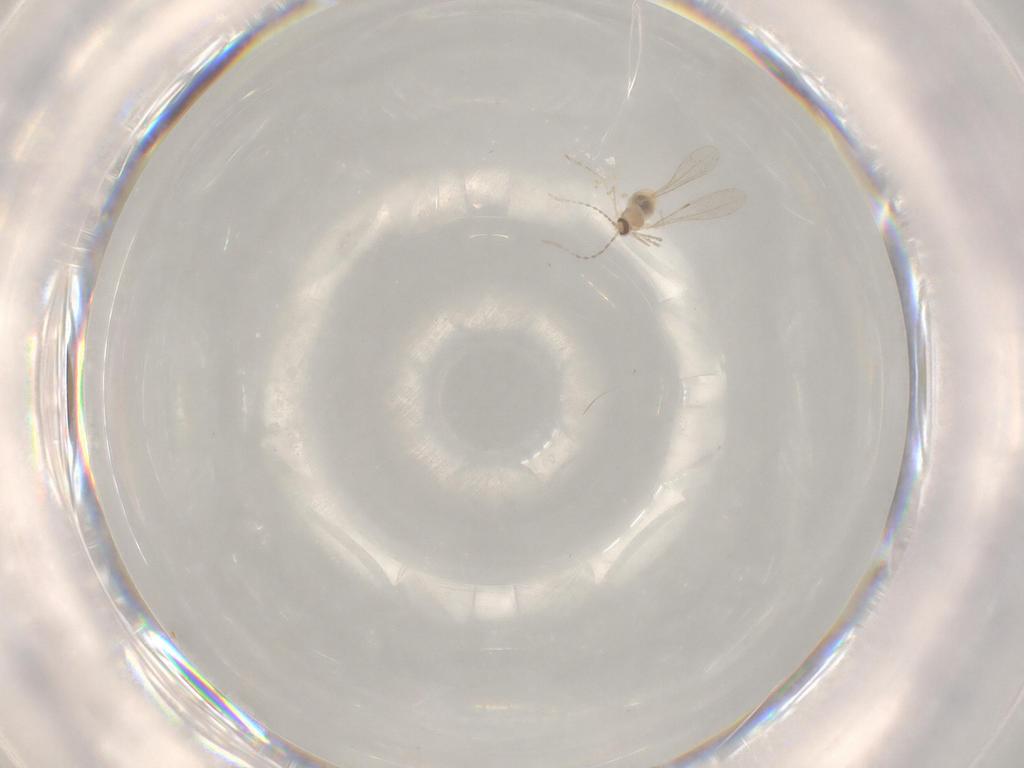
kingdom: Animalia
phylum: Arthropoda
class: Insecta
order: Diptera
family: Cecidomyiidae
